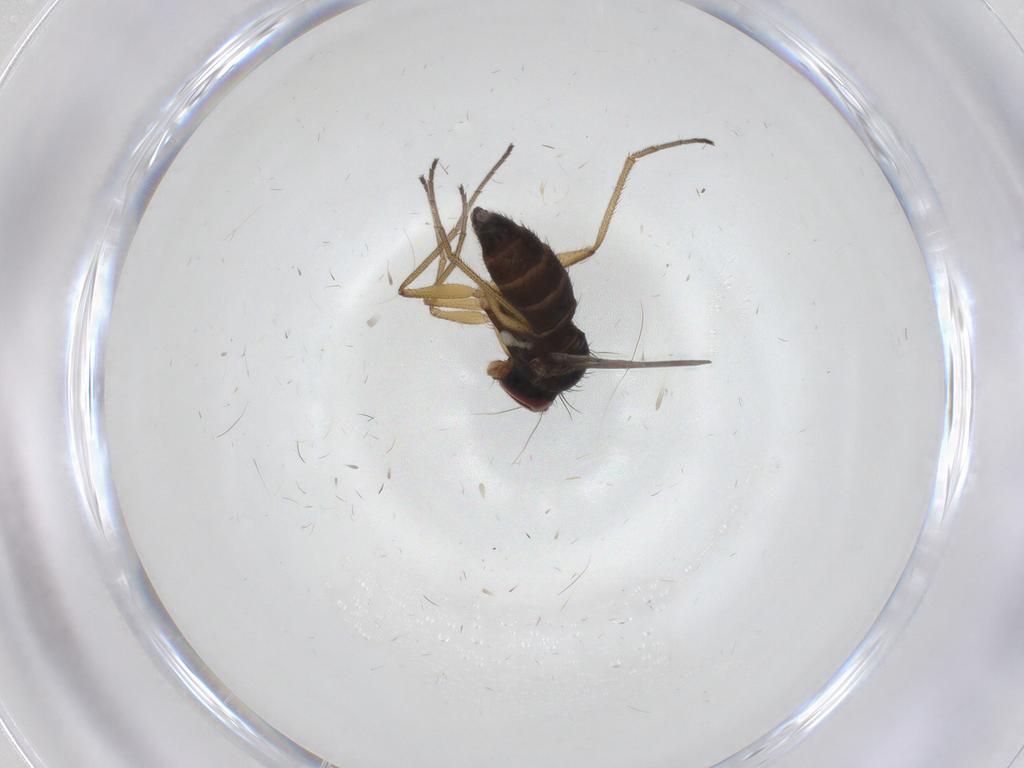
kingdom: Animalia
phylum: Arthropoda
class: Insecta
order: Diptera
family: Dolichopodidae
